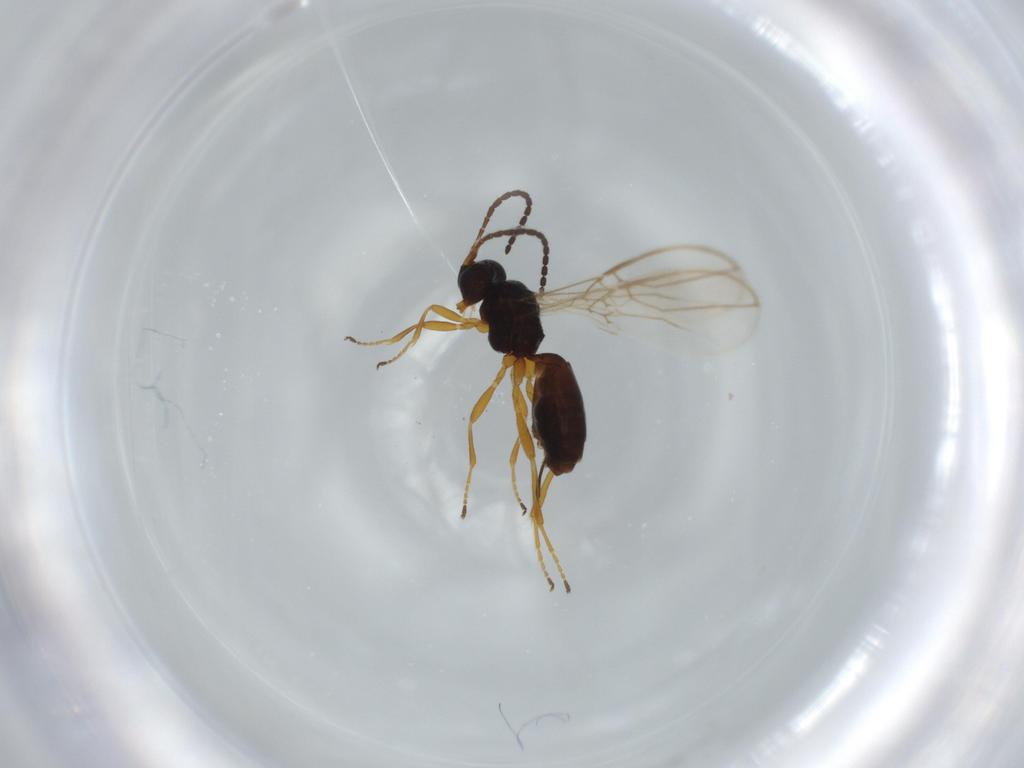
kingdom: Animalia
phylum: Arthropoda
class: Insecta
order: Hymenoptera
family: Braconidae
